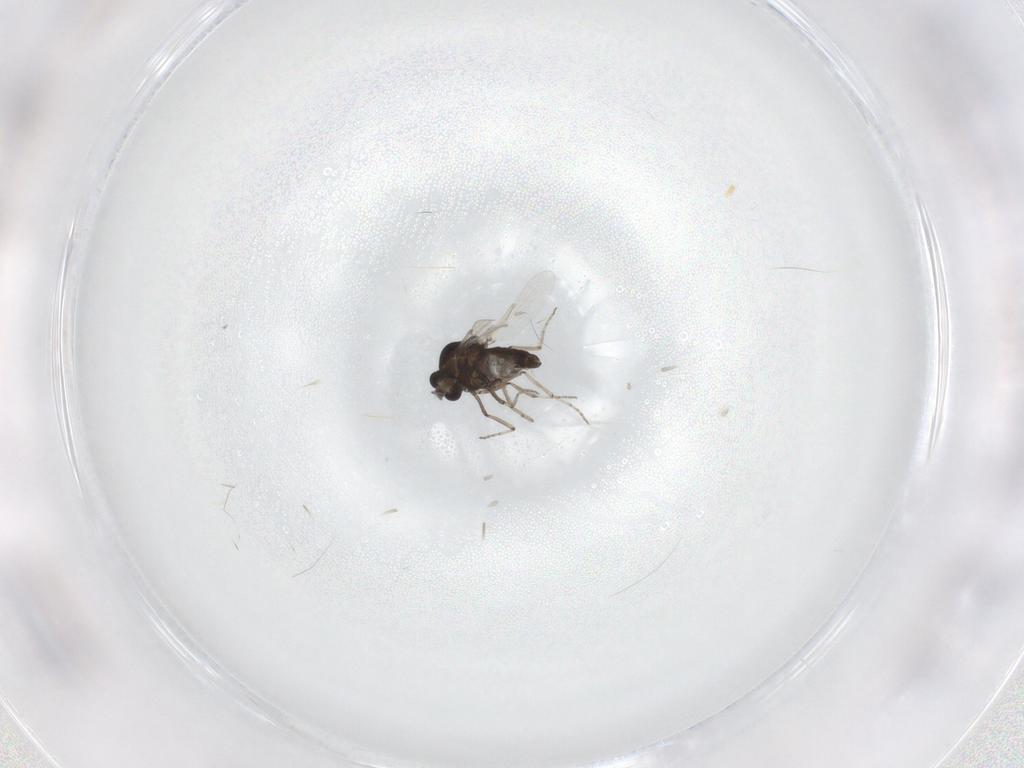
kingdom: Animalia
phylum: Arthropoda
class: Insecta
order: Diptera
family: Ceratopogonidae
